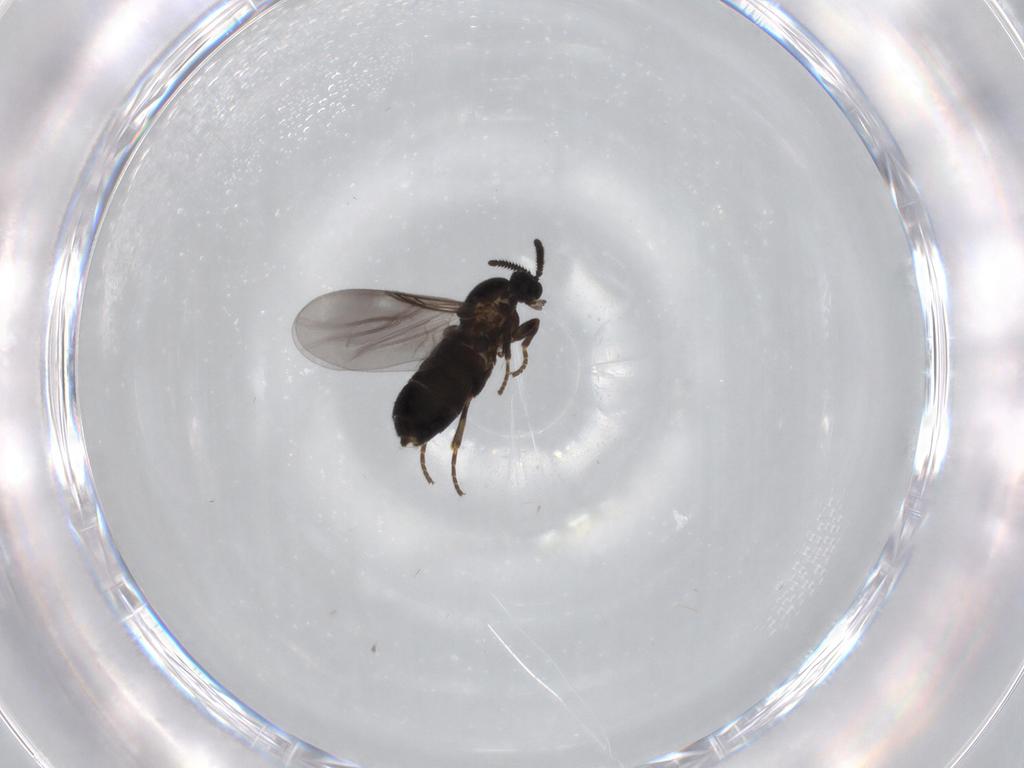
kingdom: Animalia
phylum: Arthropoda
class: Insecta
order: Diptera
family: Scatopsidae
